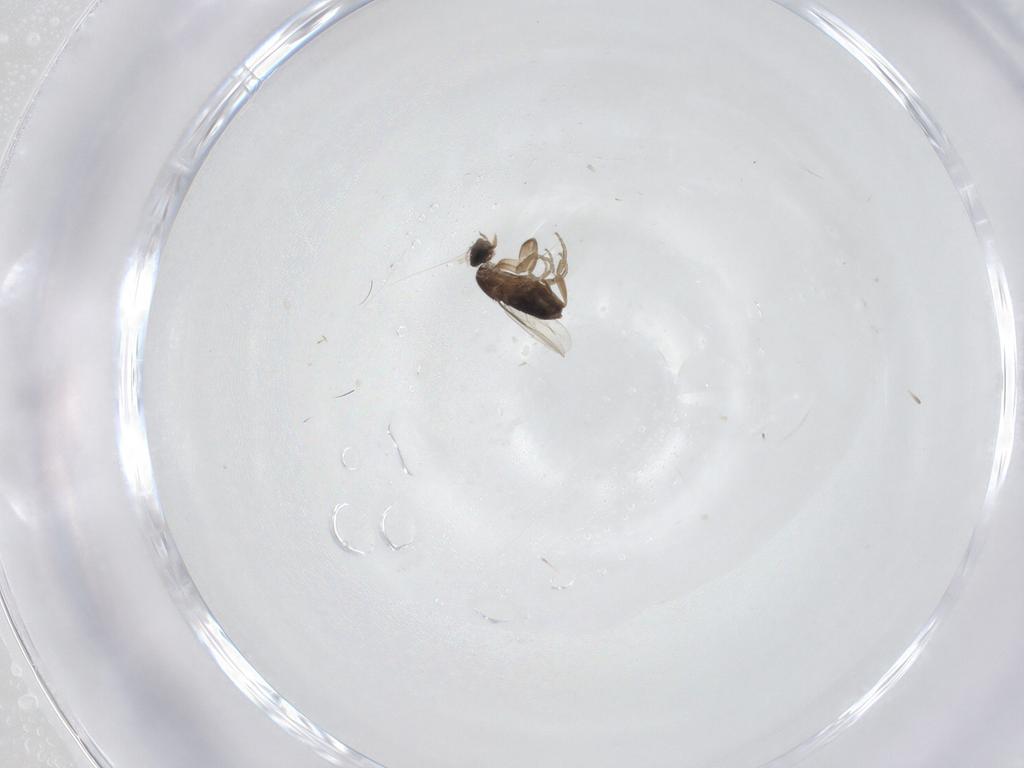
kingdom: Animalia
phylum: Arthropoda
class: Insecta
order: Diptera
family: Phoridae
